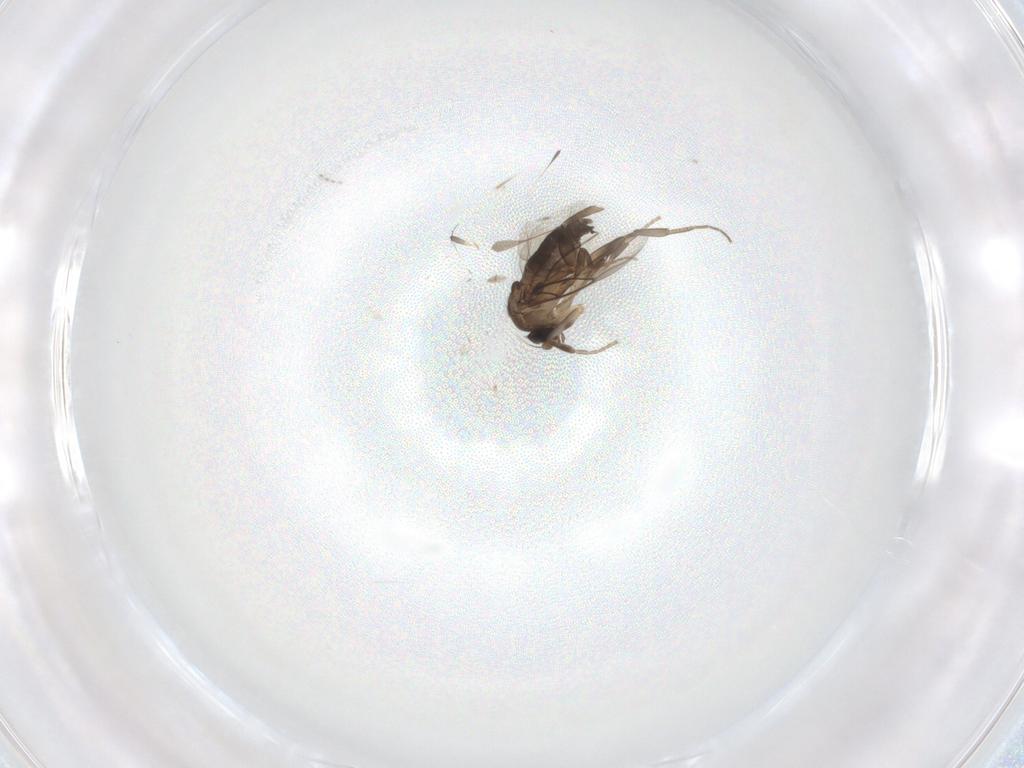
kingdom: Animalia
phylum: Arthropoda
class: Insecta
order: Diptera
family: Phoridae
